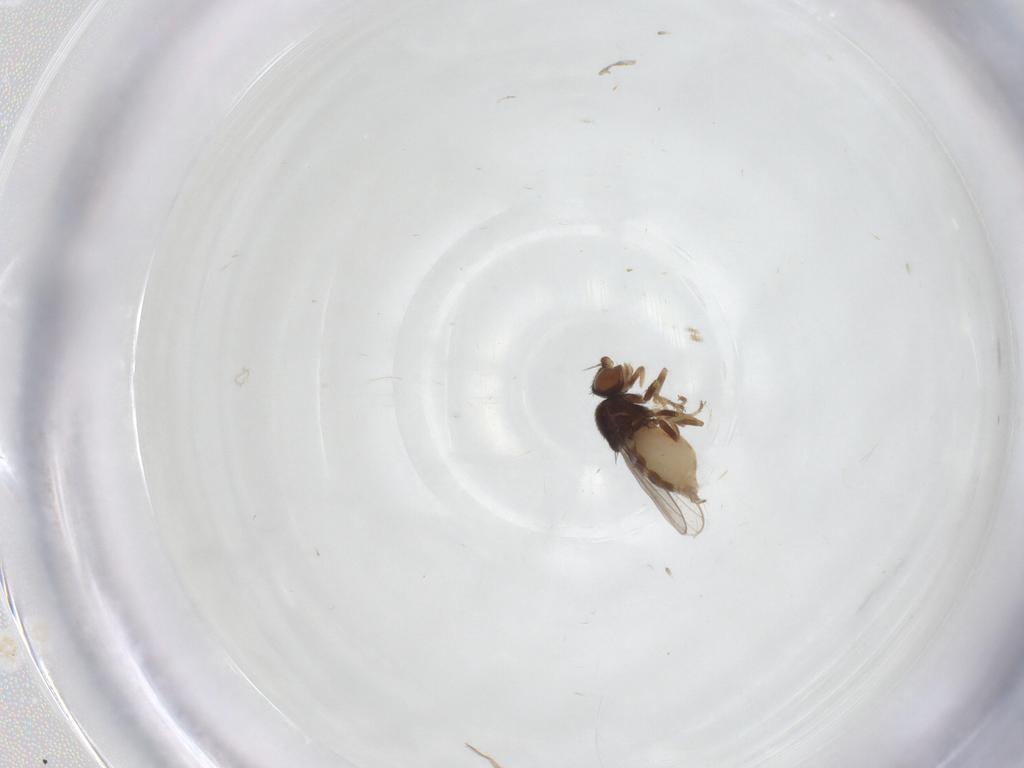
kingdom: Animalia
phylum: Arthropoda
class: Insecta
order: Diptera
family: Chloropidae
